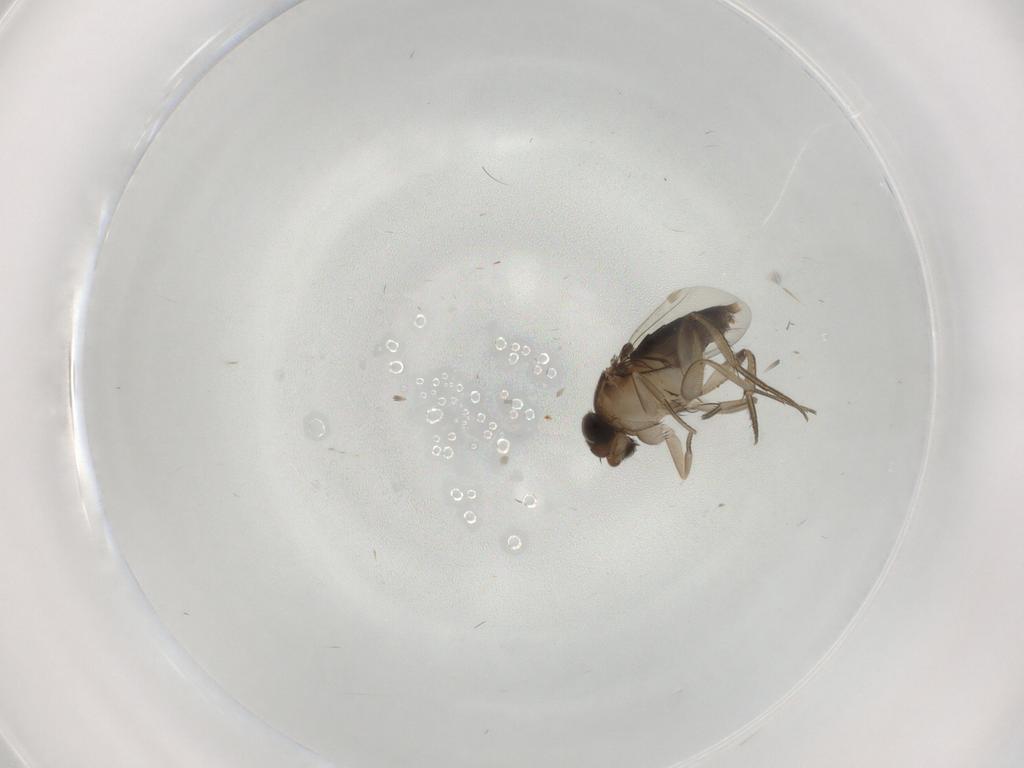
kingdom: Animalia
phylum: Arthropoda
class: Insecta
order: Diptera
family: Phoridae
